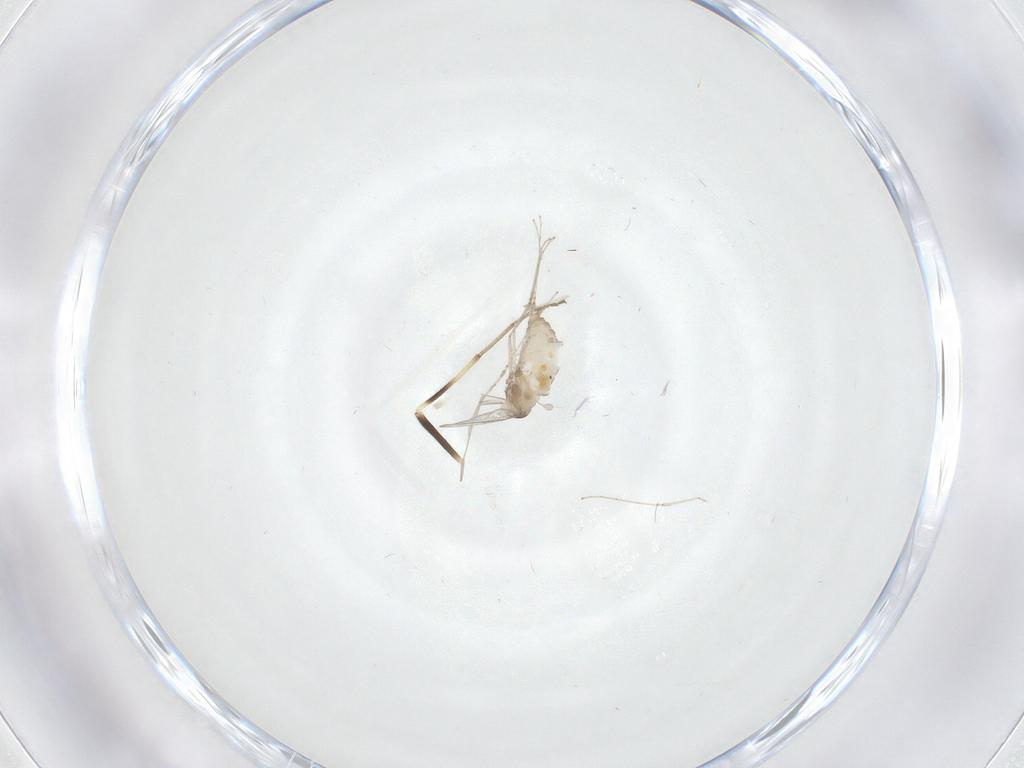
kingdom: Animalia
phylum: Arthropoda
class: Insecta
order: Diptera
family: Cecidomyiidae
